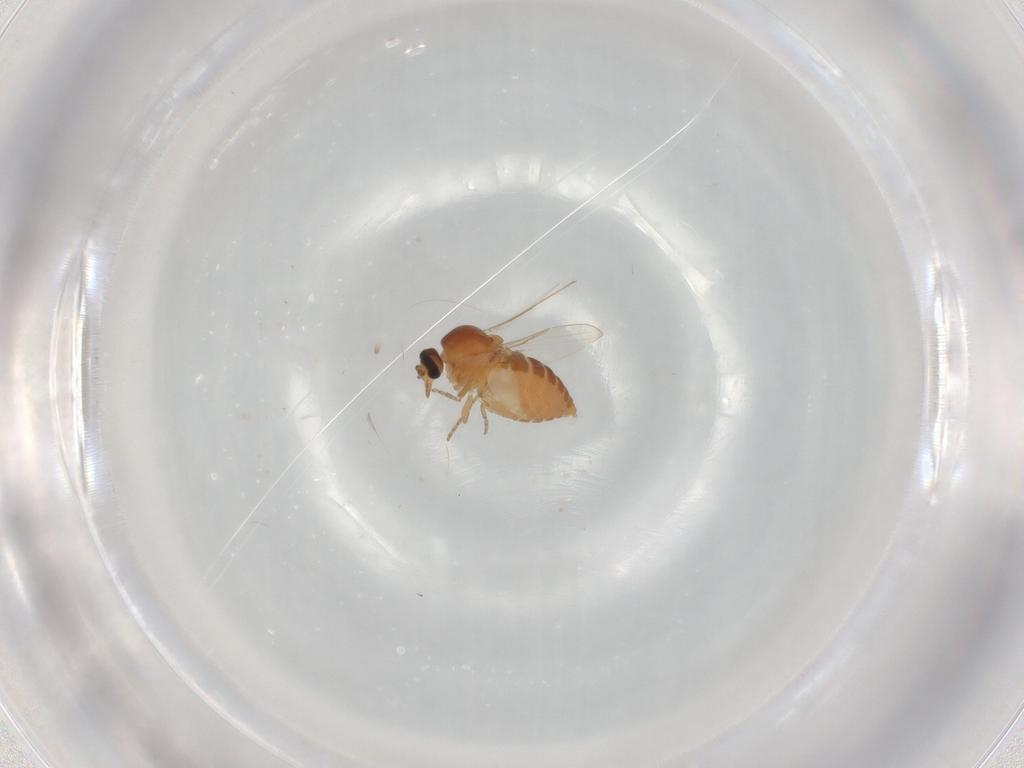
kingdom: Animalia
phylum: Arthropoda
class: Insecta
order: Diptera
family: Ceratopogonidae
